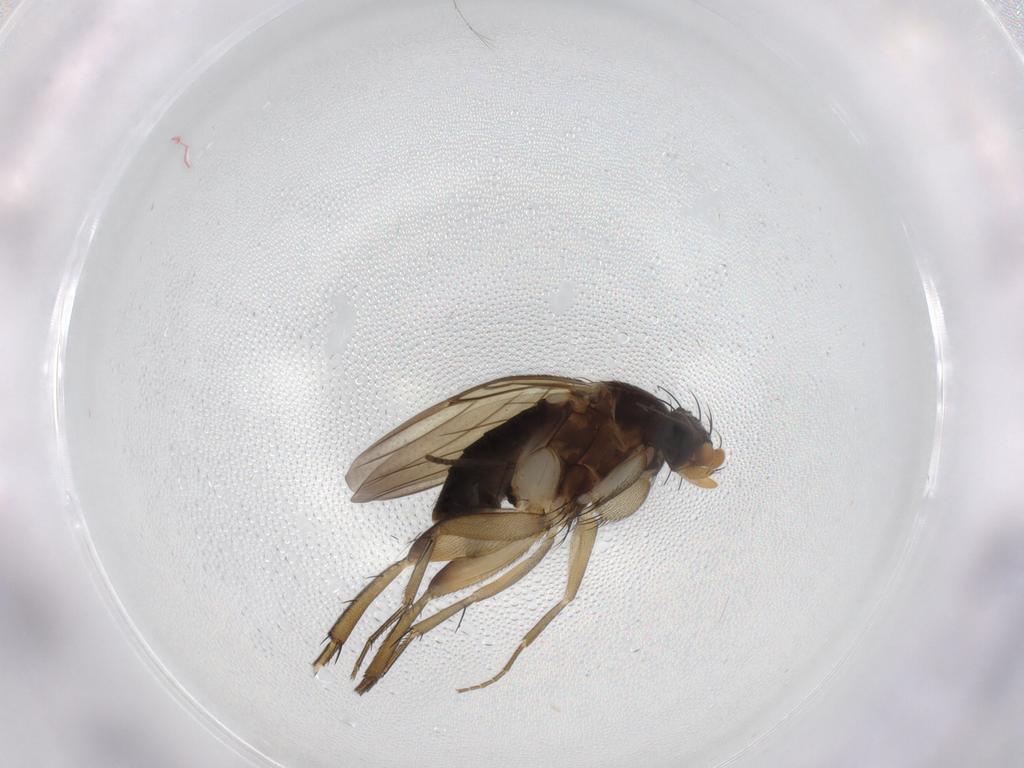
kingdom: Animalia
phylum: Arthropoda
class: Insecta
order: Diptera
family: Phoridae
